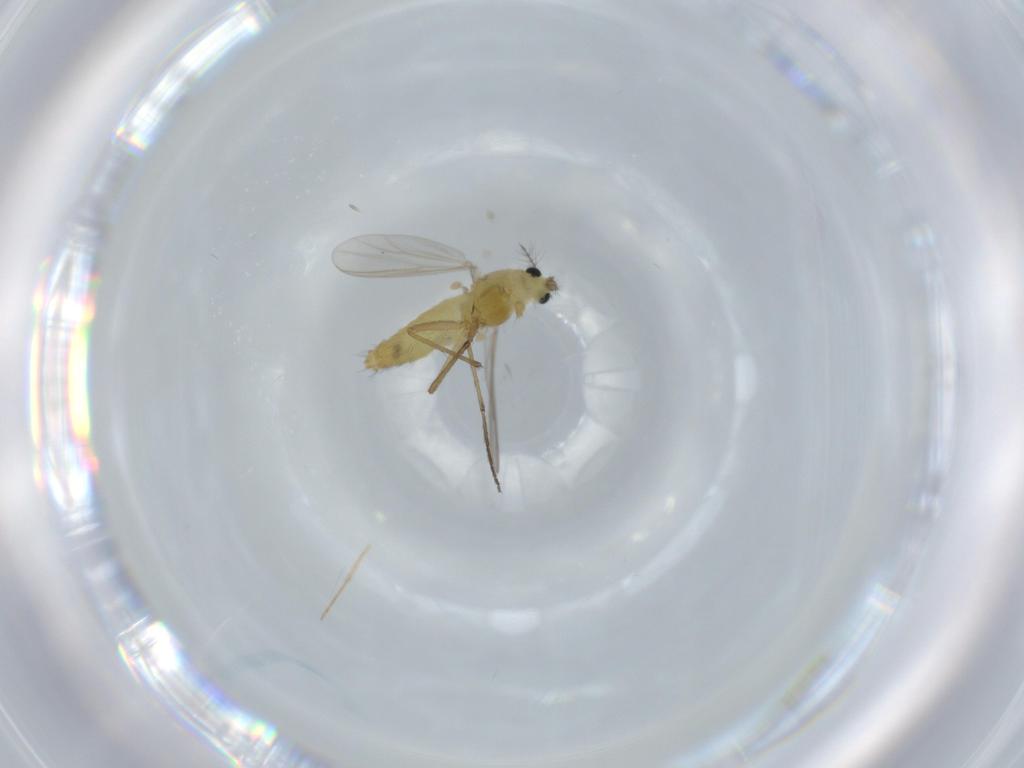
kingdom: Animalia
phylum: Arthropoda
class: Insecta
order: Diptera
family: Chironomidae
